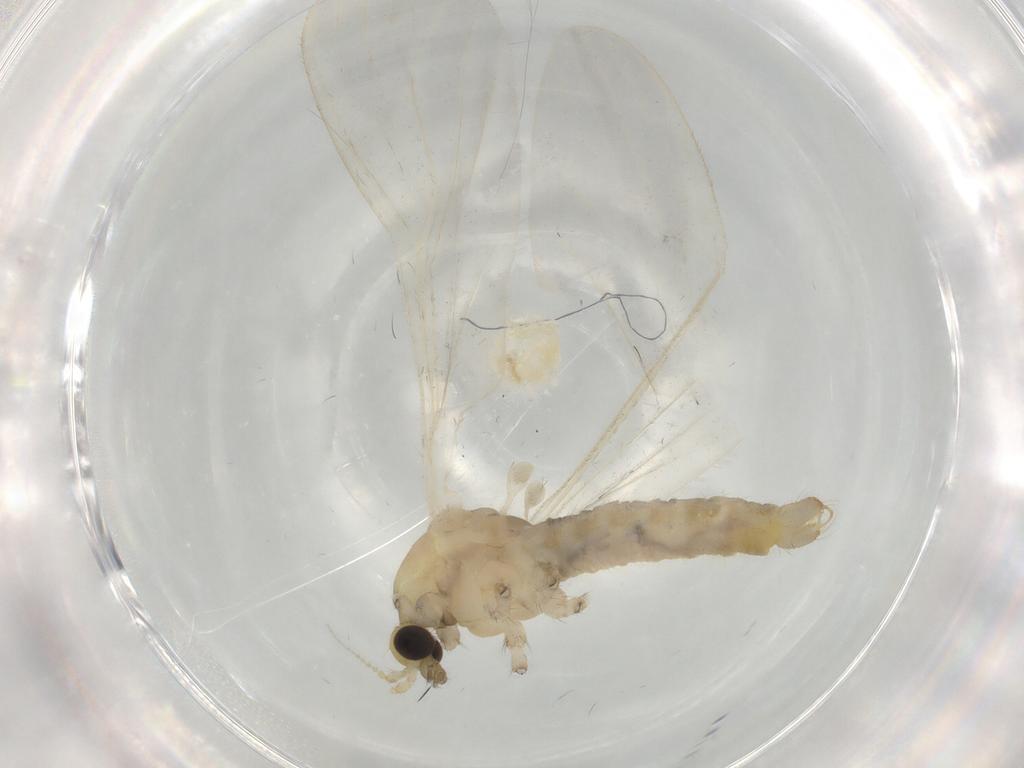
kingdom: Animalia
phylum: Arthropoda
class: Insecta
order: Diptera
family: Limoniidae
